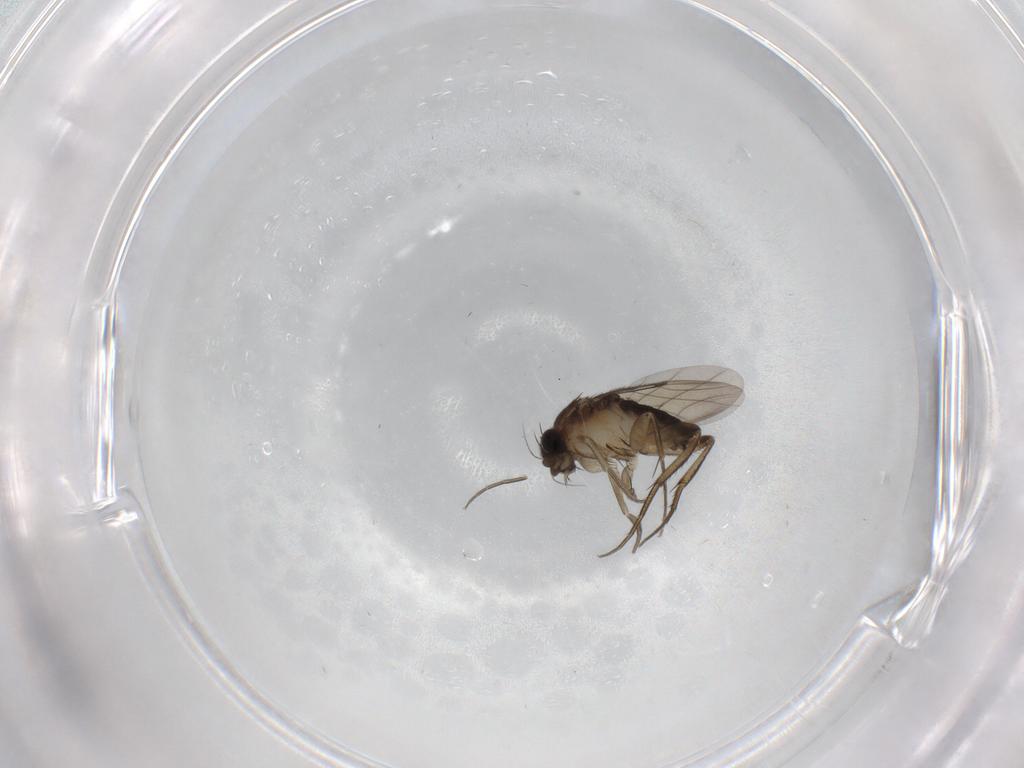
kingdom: Animalia
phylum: Arthropoda
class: Insecta
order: Diptera
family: Phoridae
